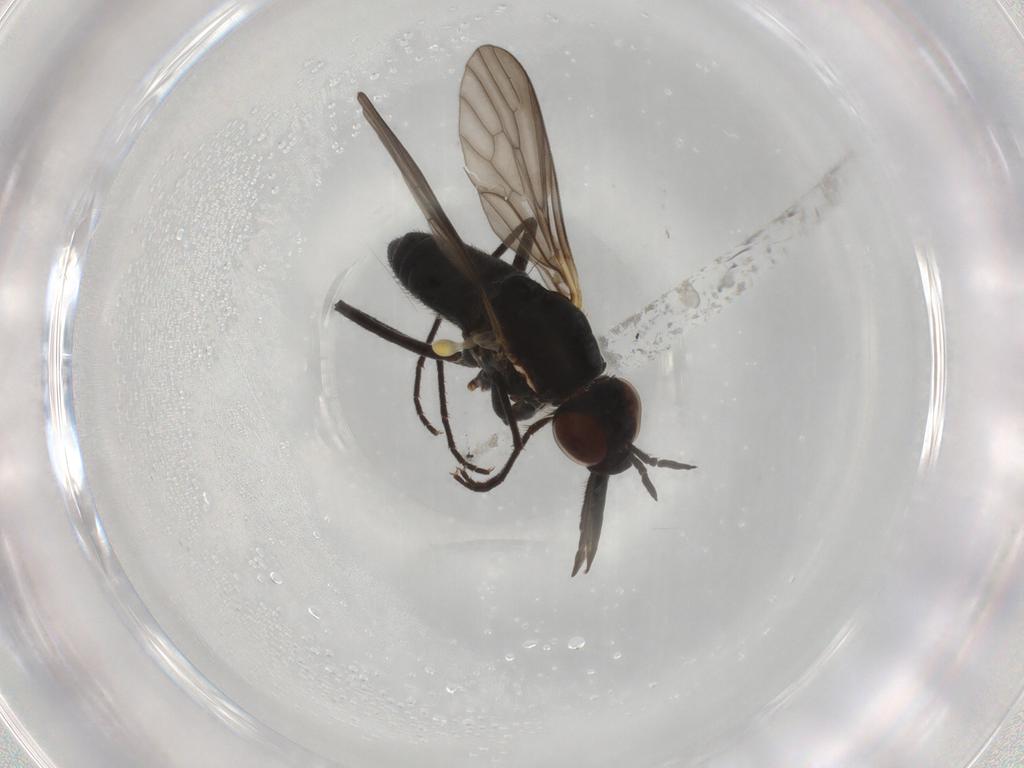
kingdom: Animalia
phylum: Arthropoda
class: Insecta
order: Diptera
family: Bombyliidae
